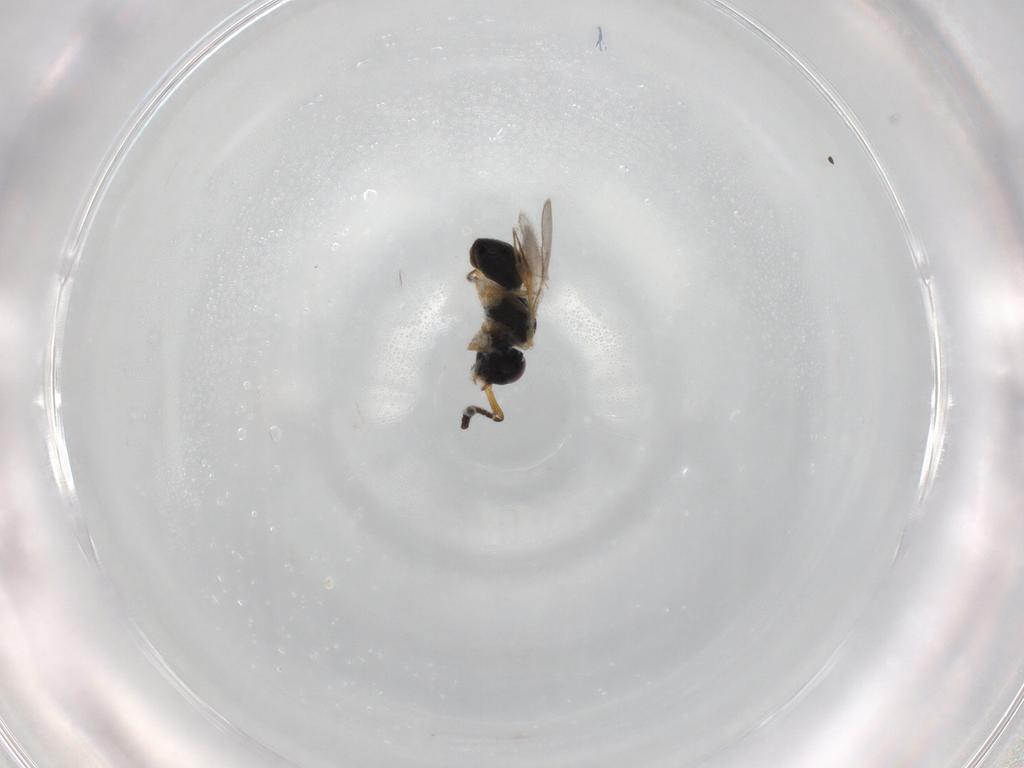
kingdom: Animalia
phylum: Arthropoda
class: Insecta
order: Hymenoptera
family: Scelionidae
